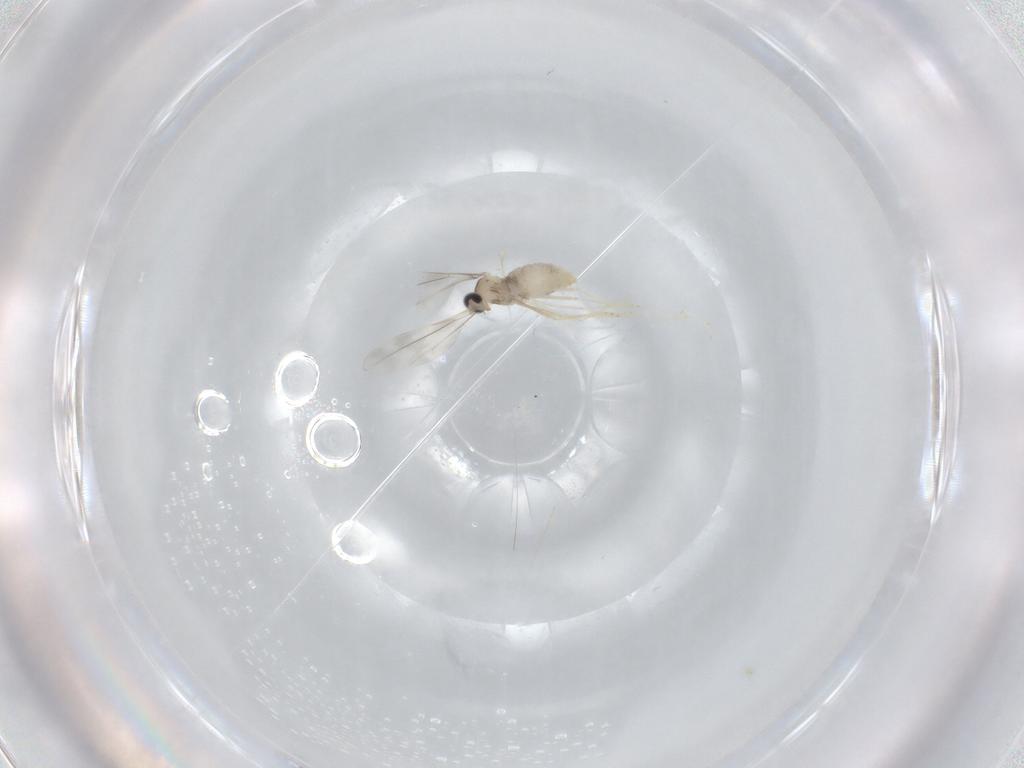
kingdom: Animalia
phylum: Arthropoda
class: Insecta
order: Diptera
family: Cecidomyiidae
